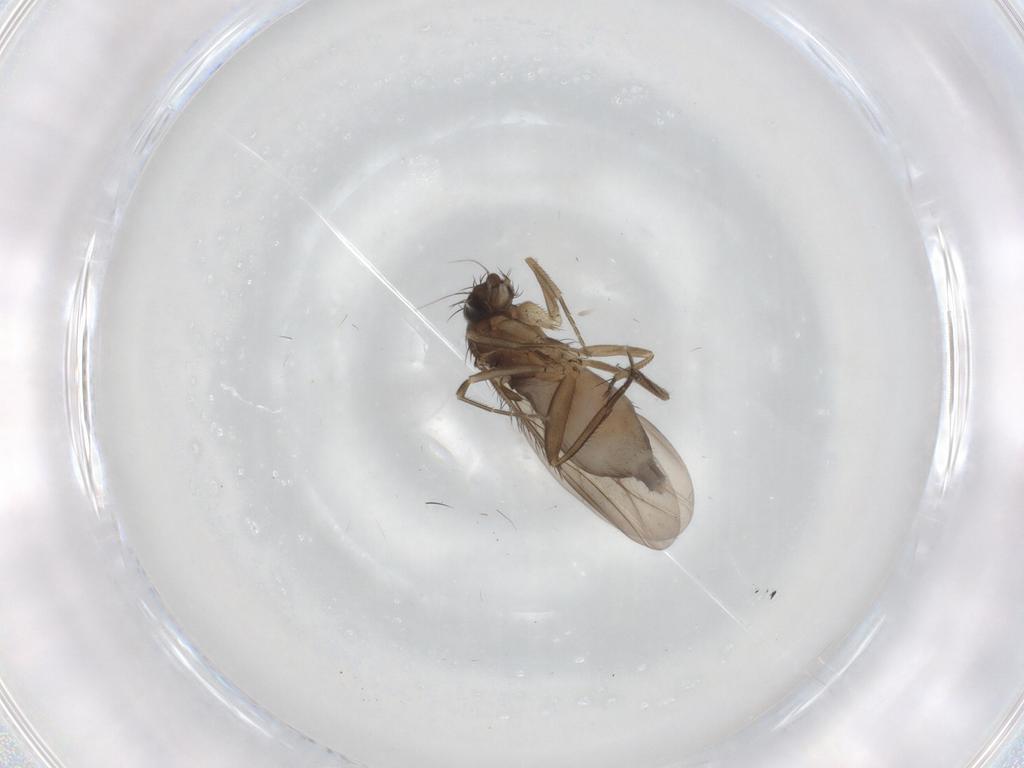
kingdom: Animalia
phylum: Arthropoda
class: Insecta
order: Diptera
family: Phoridae
